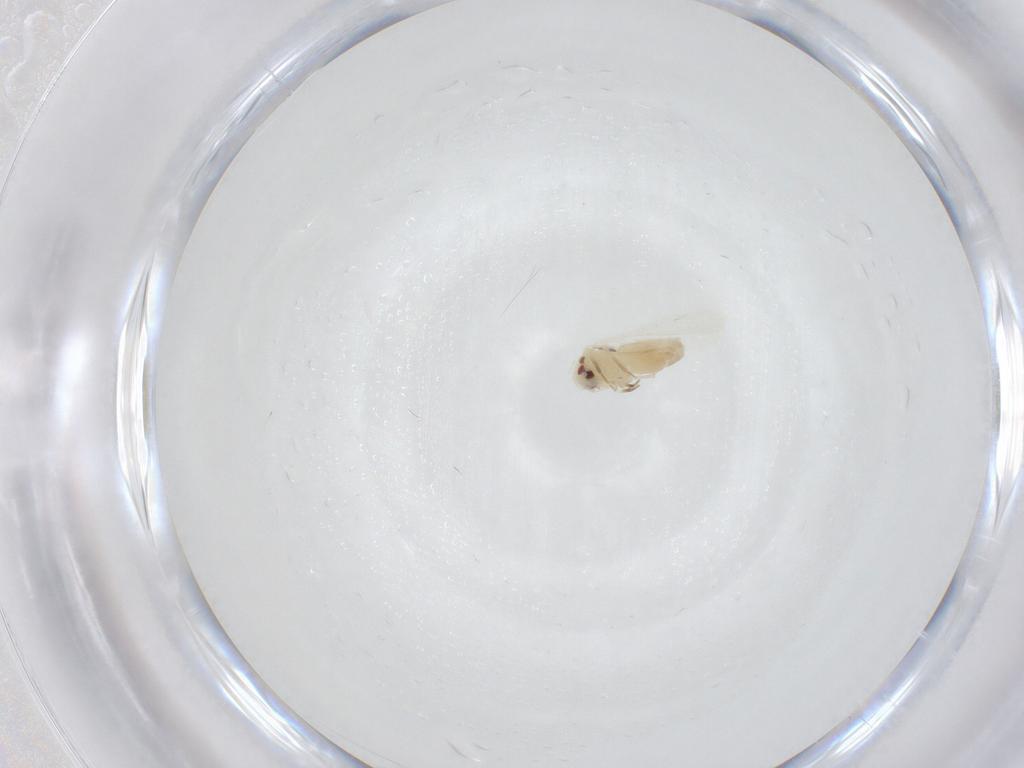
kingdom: Animalia
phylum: Arthropoda
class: Insecta
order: Hemiptera
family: Aleyrodidae
